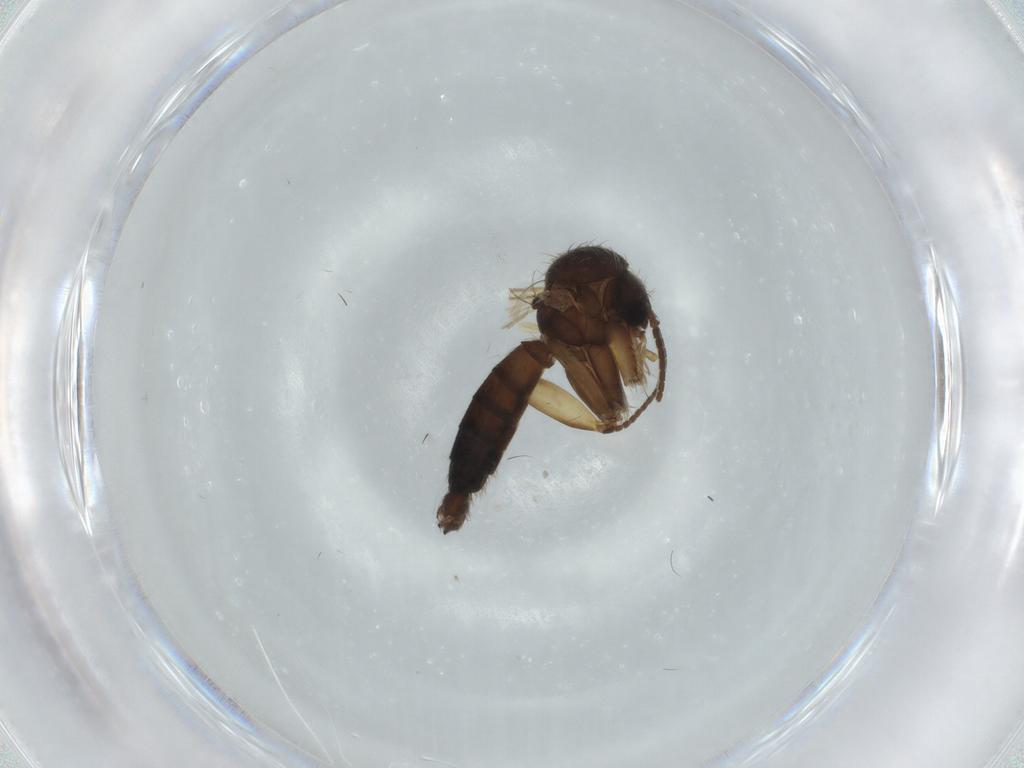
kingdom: Animalia
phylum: Arthropoda
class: Insecta
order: Diptera
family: Mycetophilidae
